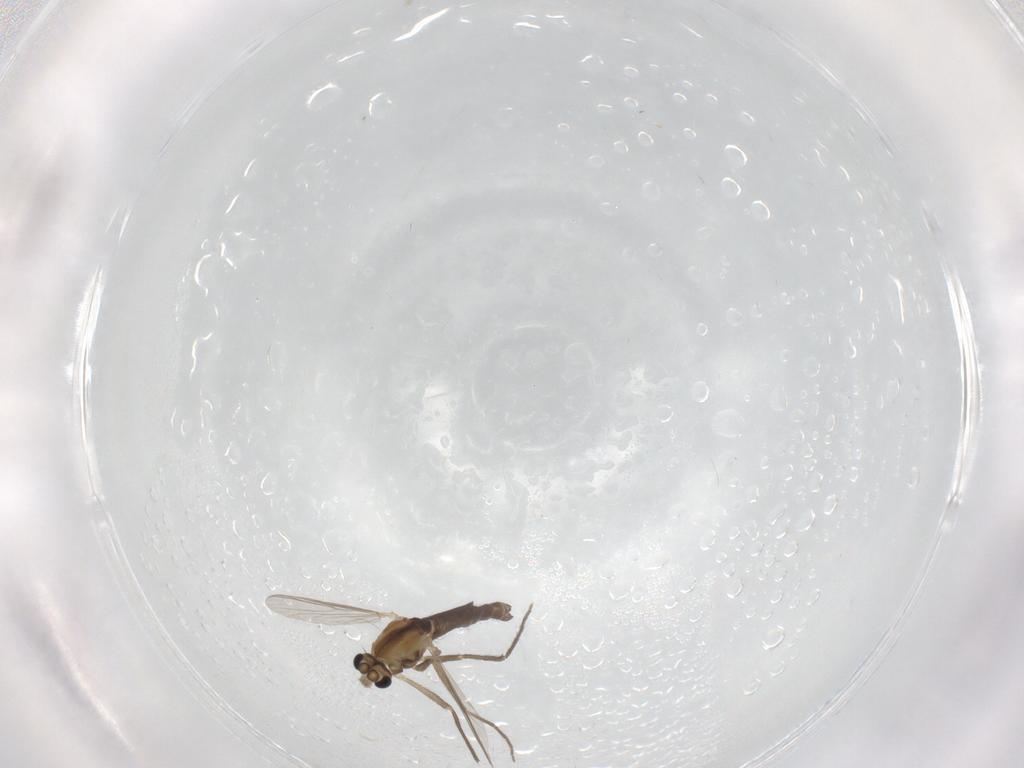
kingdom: Animalia
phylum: Arthropoda
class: Insecta
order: Diptera
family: Chironomidae
